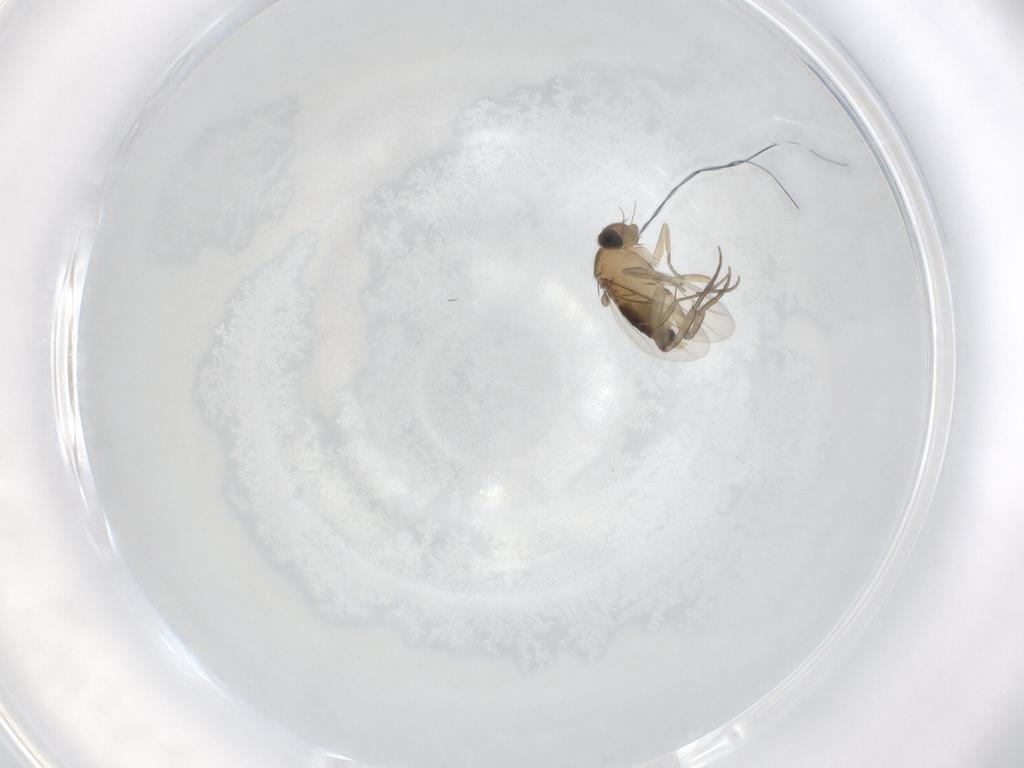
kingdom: Animalia
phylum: Arthropoda
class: Insecta
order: Diptera
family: Phoridae
